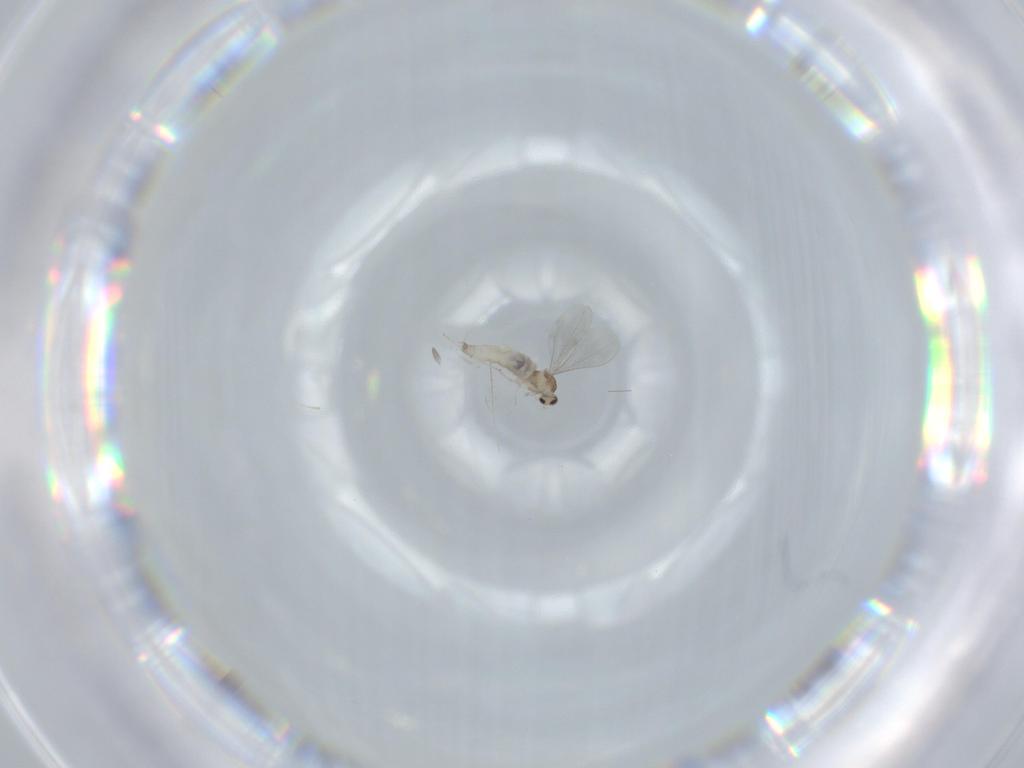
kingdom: Animalia
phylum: Arthropoda
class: Insecta
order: Diptera
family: Cecidomyiidae
